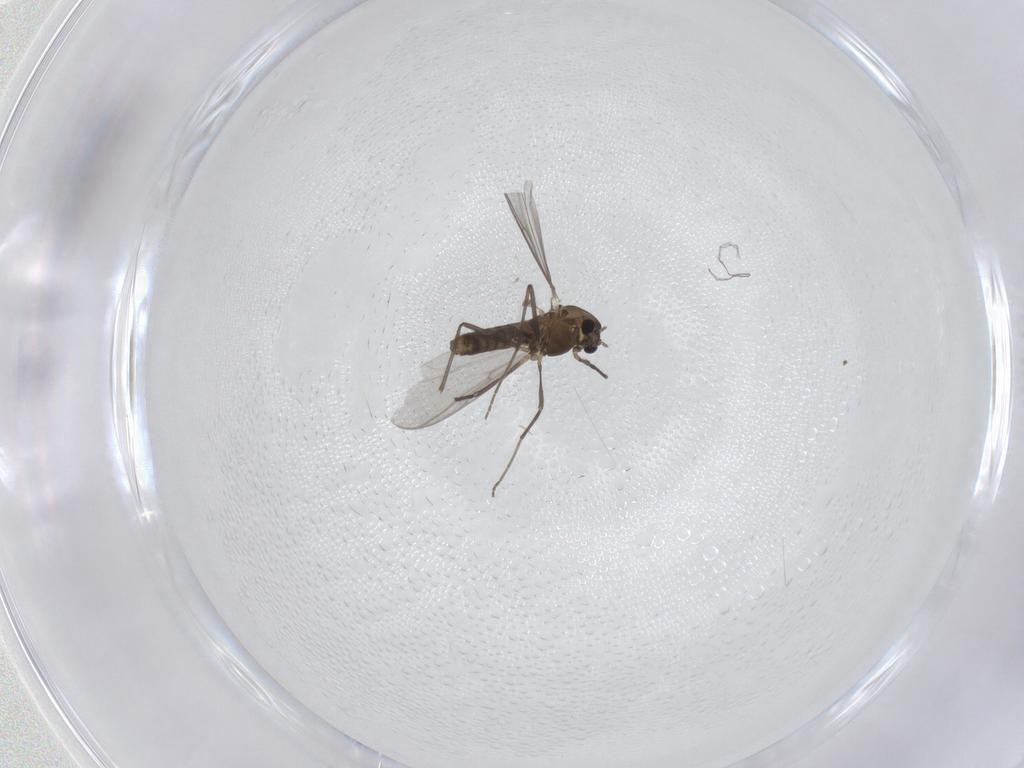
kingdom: Animalia
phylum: Arthropoda
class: Insecta
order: Diptera
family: Chironomidae
